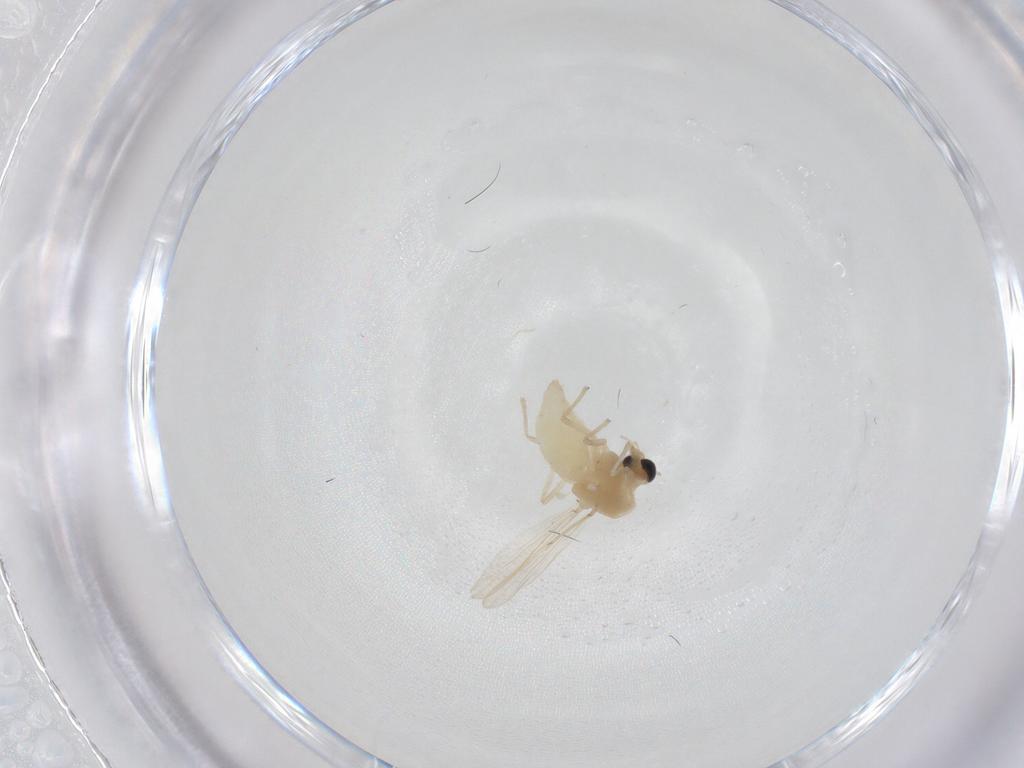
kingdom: Animalia
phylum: Arthropoda
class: Insecta
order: Diptera
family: Chironomidae
